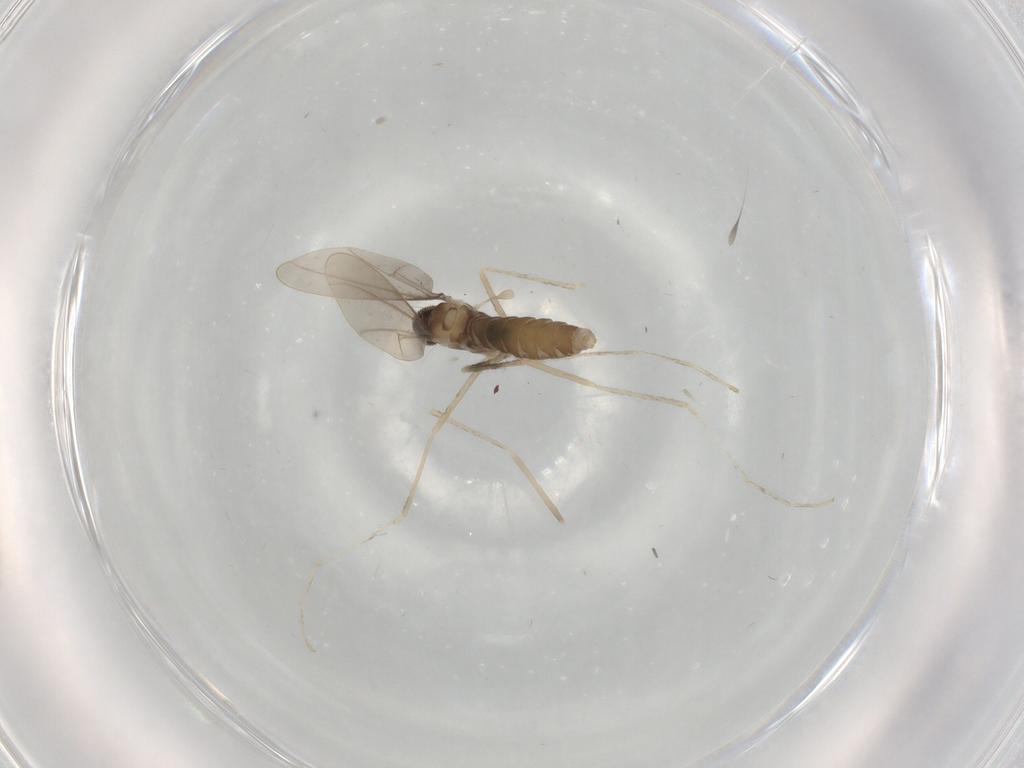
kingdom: Animalia
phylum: Arthropoda
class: Insecta
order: Diptera
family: Cecidomyiidae
